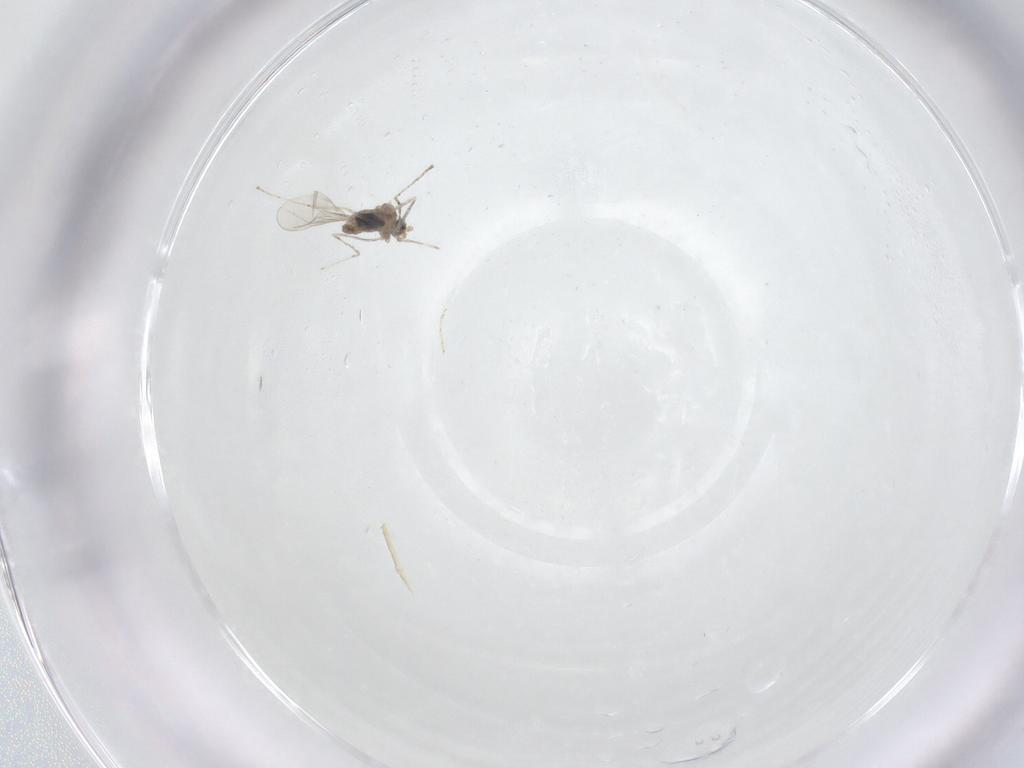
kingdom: Animalia
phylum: Arthropoda
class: Insecta
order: Diptera
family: Cecidomyiidae
